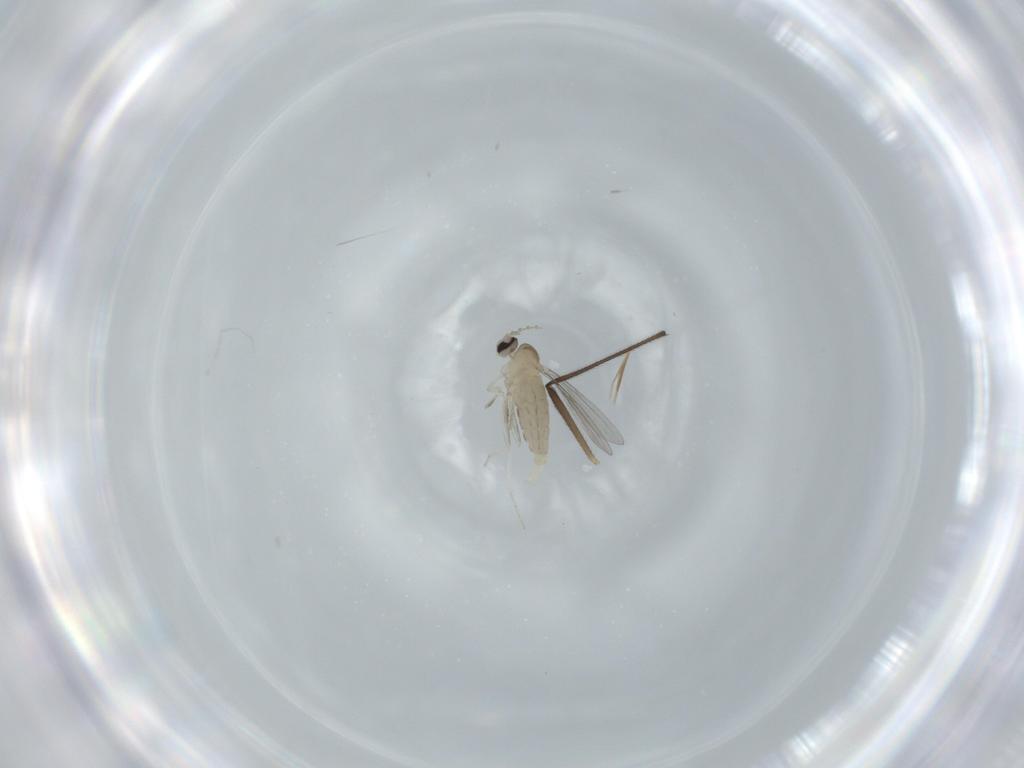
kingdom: Animalia
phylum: Arthropoda
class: Insecta
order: Diptera
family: Cecidomyiidae
